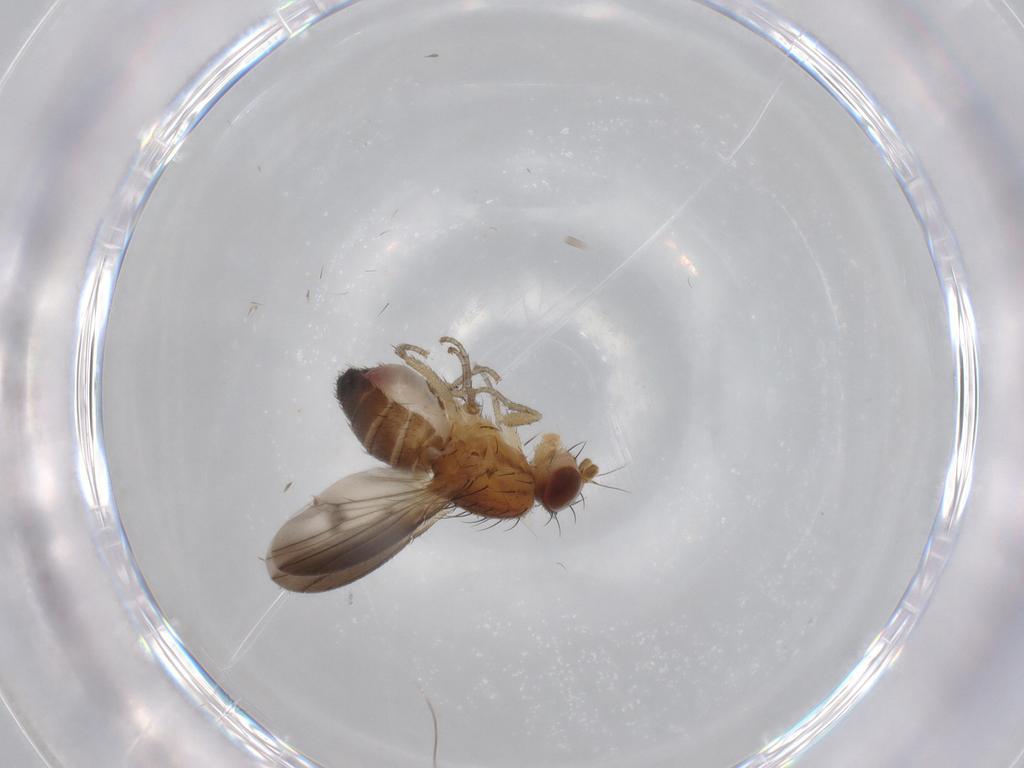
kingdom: Animalia
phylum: Arthropoda
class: Insecta
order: Diptera
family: Heleomyzidae
